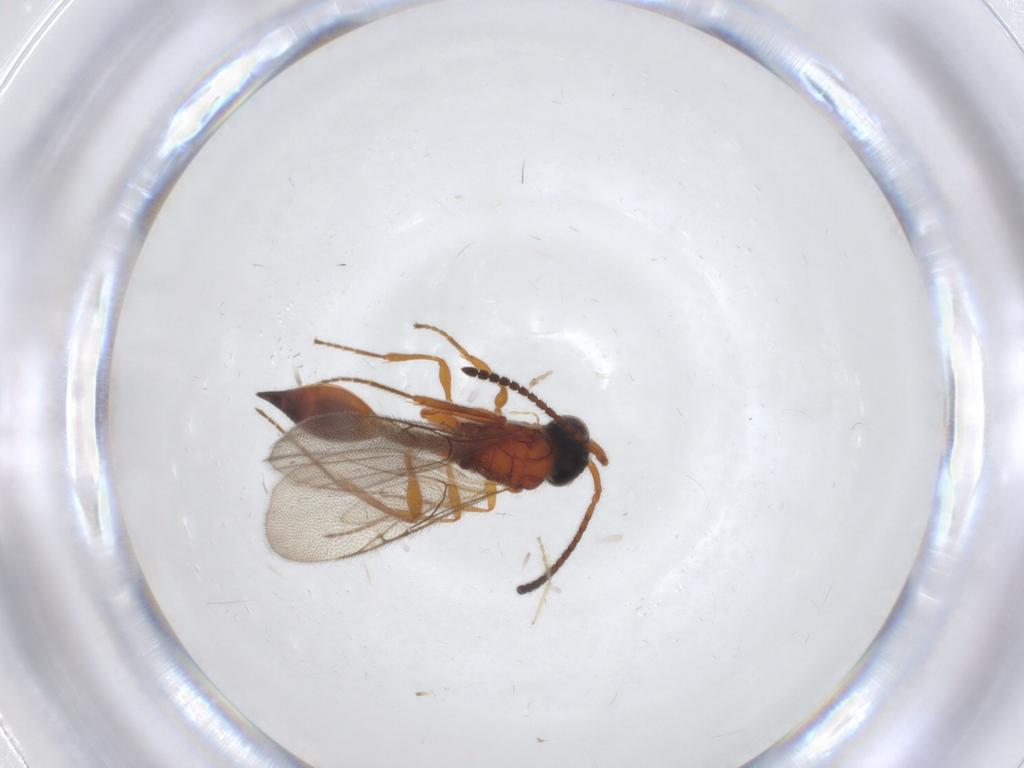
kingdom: Animalia
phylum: Arthropoda
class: Insecta
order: Hymenoptera
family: Diapriidae
